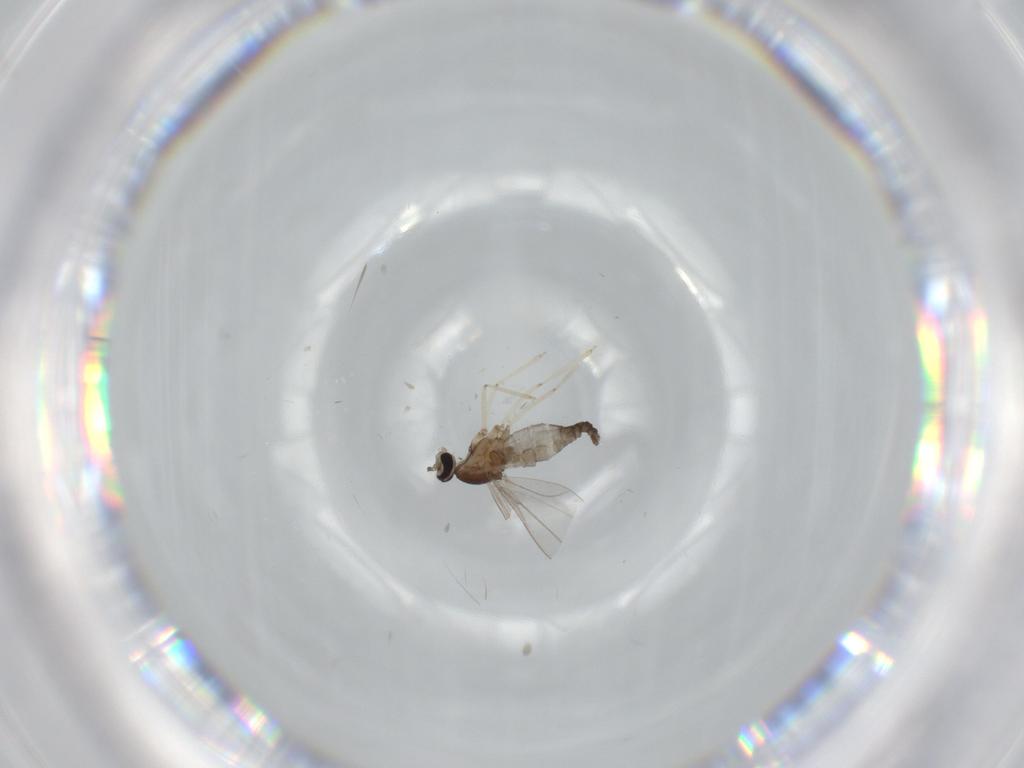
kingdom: Animalia
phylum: Arthropoda
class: Insecta
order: Diptera
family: Cecidomyiidae
